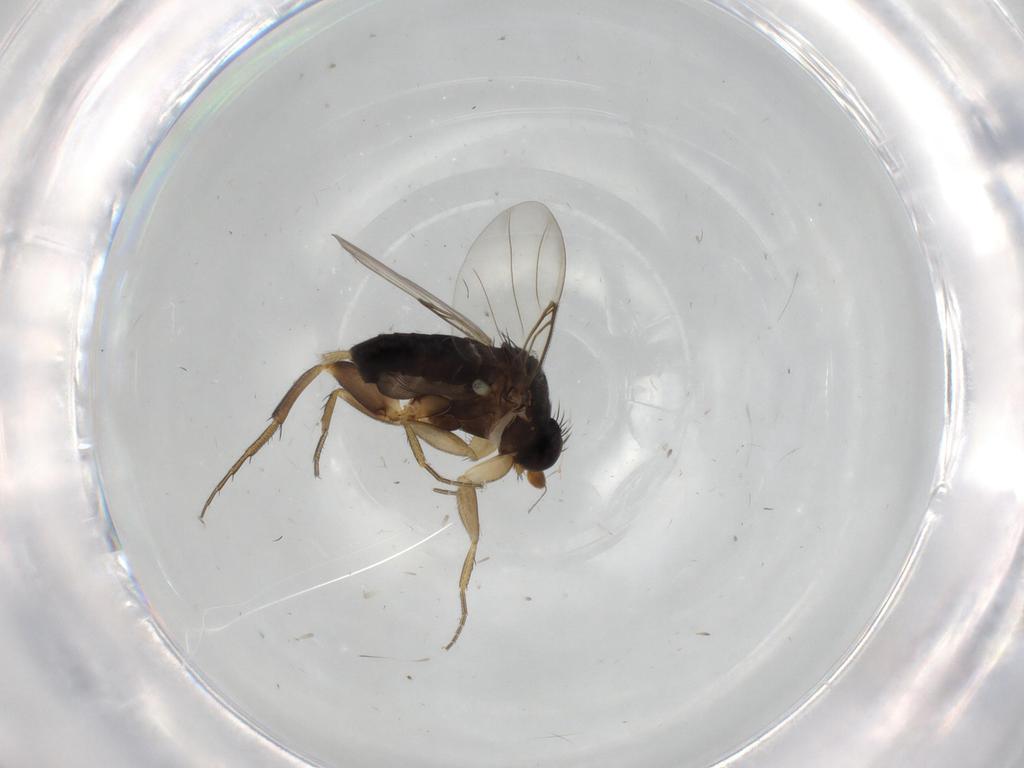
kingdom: Animalia
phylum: Arthropoda
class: Insecta
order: Diptera
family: Phoridae
